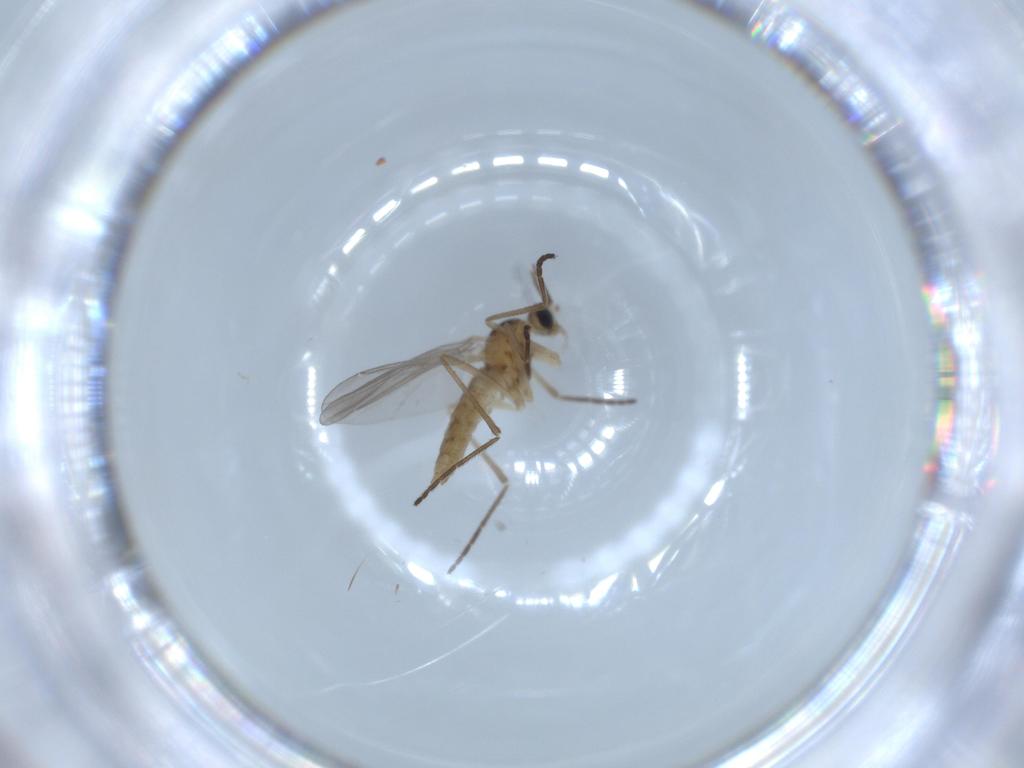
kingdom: Animalia
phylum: Arthropoda
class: Insecta
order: Diptera
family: Cecidomyiidae
